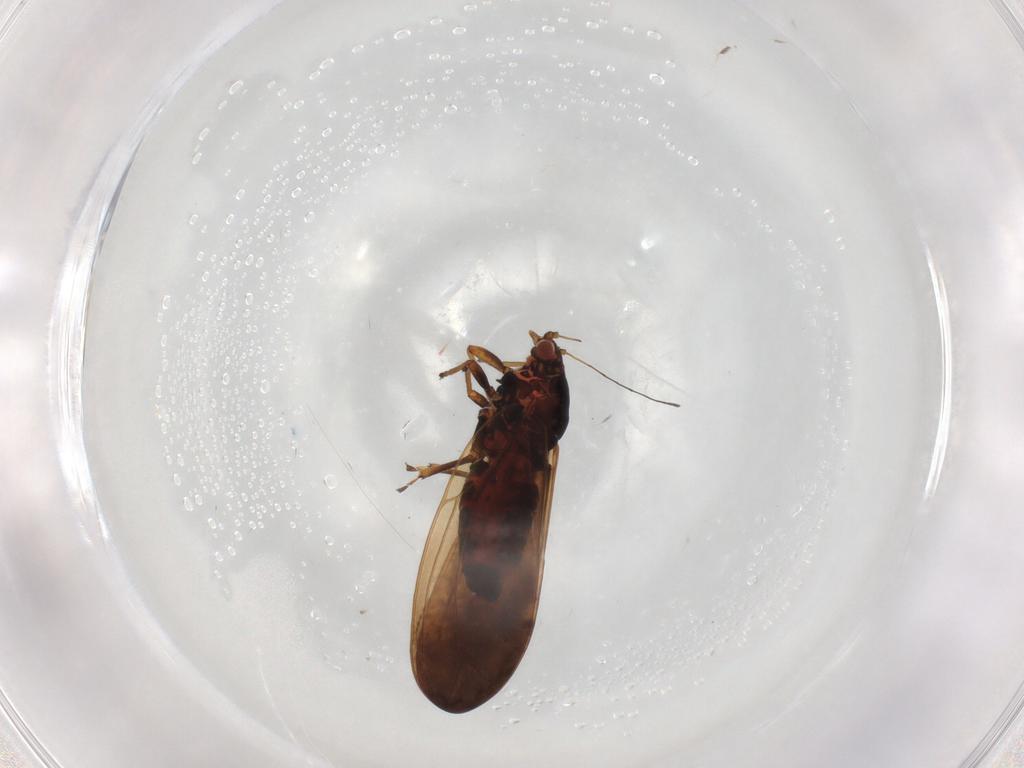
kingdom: Animalia
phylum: Arthropoda
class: Insecta
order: Hemiptera
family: Triozidae
